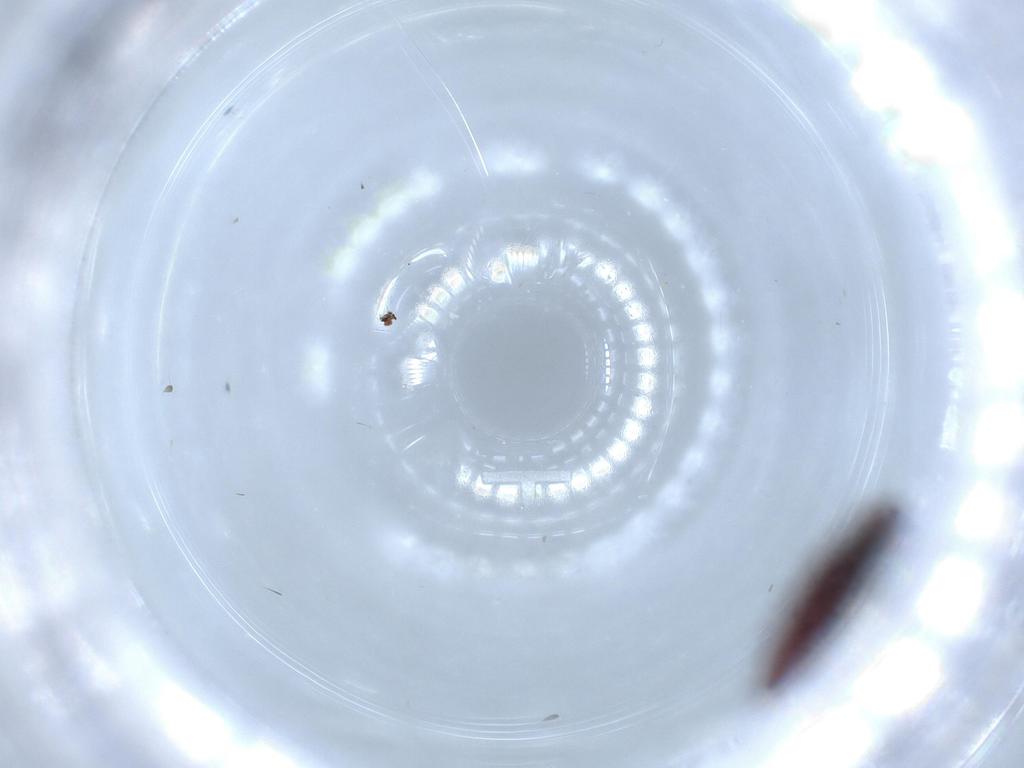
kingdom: Animalia
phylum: Arthropoda
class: Insecta
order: Coleoptera
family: Throscidae
